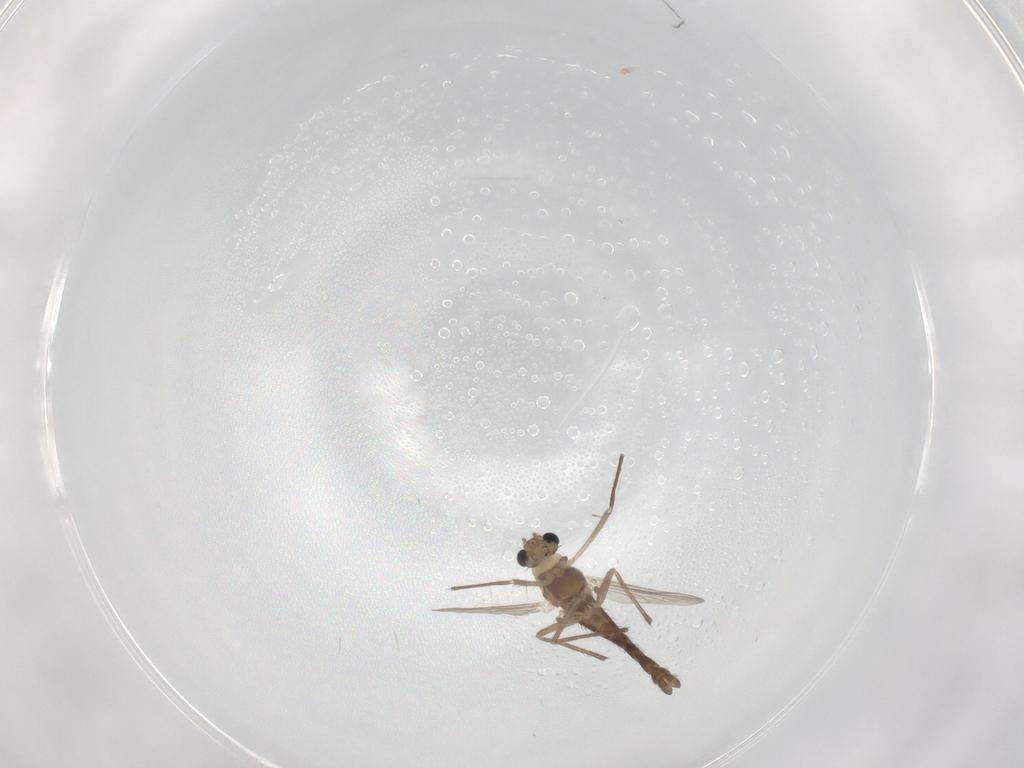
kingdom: Animalia
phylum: Arthropoda
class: Insecta
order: Diptera
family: Chironomidae
